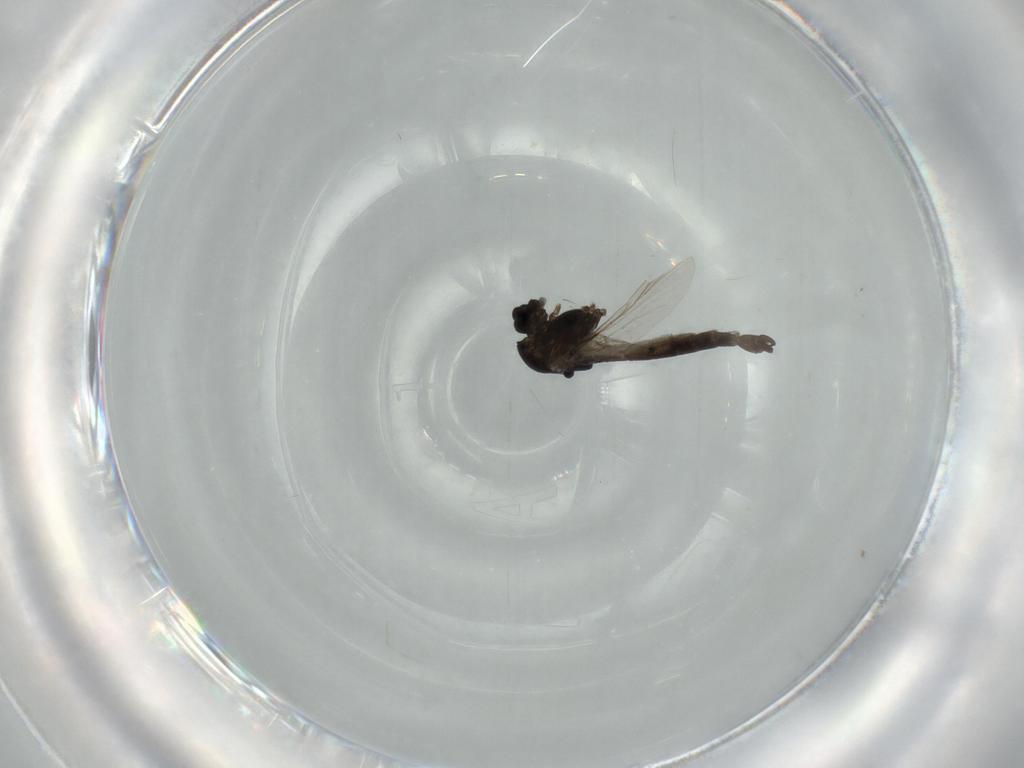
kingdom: Animalia
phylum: Arthropoda
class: Insecta
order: Diptera
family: Chironomidae
